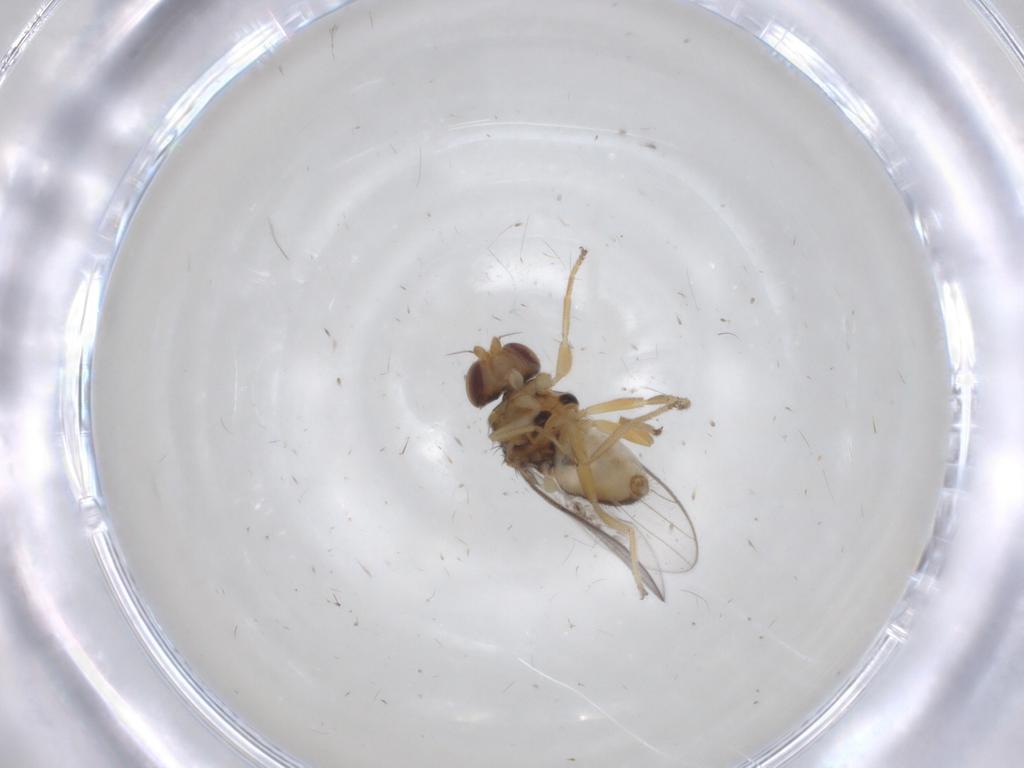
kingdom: Animalia
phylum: Arthropoda
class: Insecta
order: Diptera
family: Chloropidae
